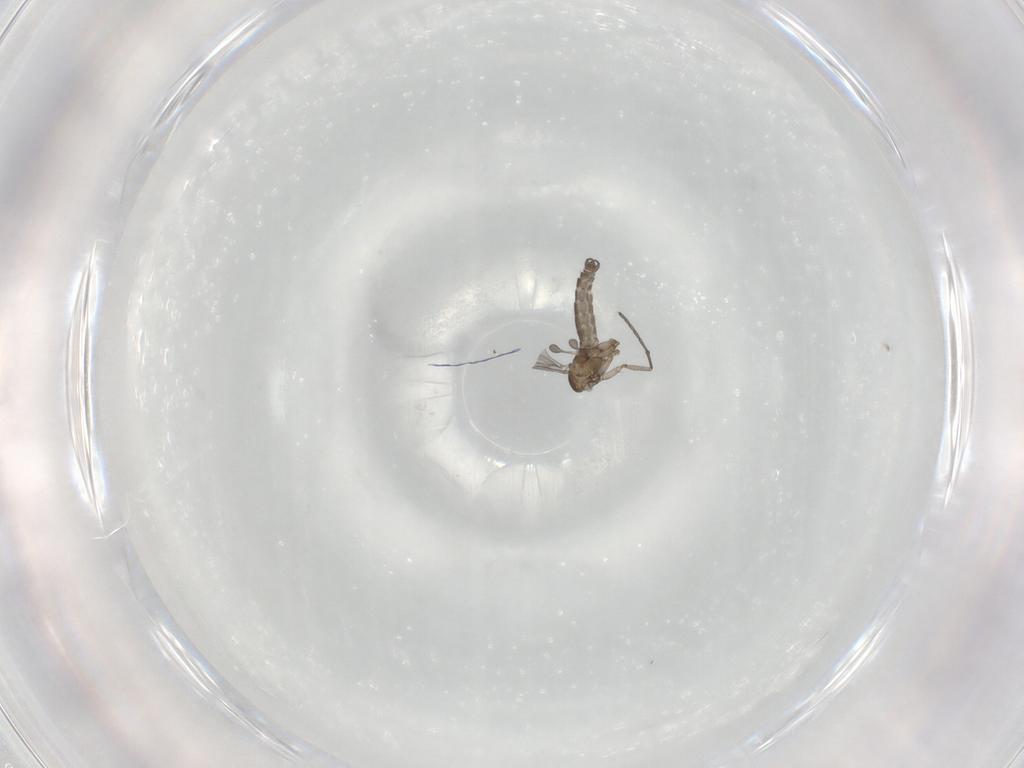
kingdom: Animalia
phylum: Arthropoda
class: Insecta
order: Diptera
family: Sciaridae
